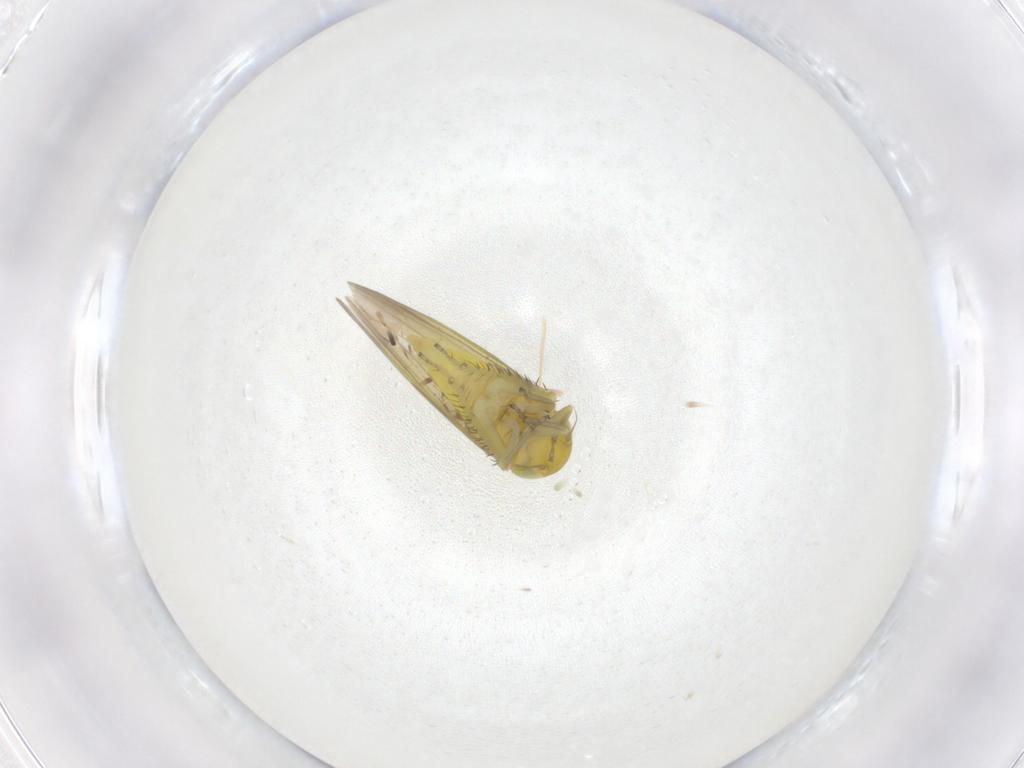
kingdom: Animalia
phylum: Arthropoda
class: Insecta
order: Hemiptera
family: Cicadellidae
